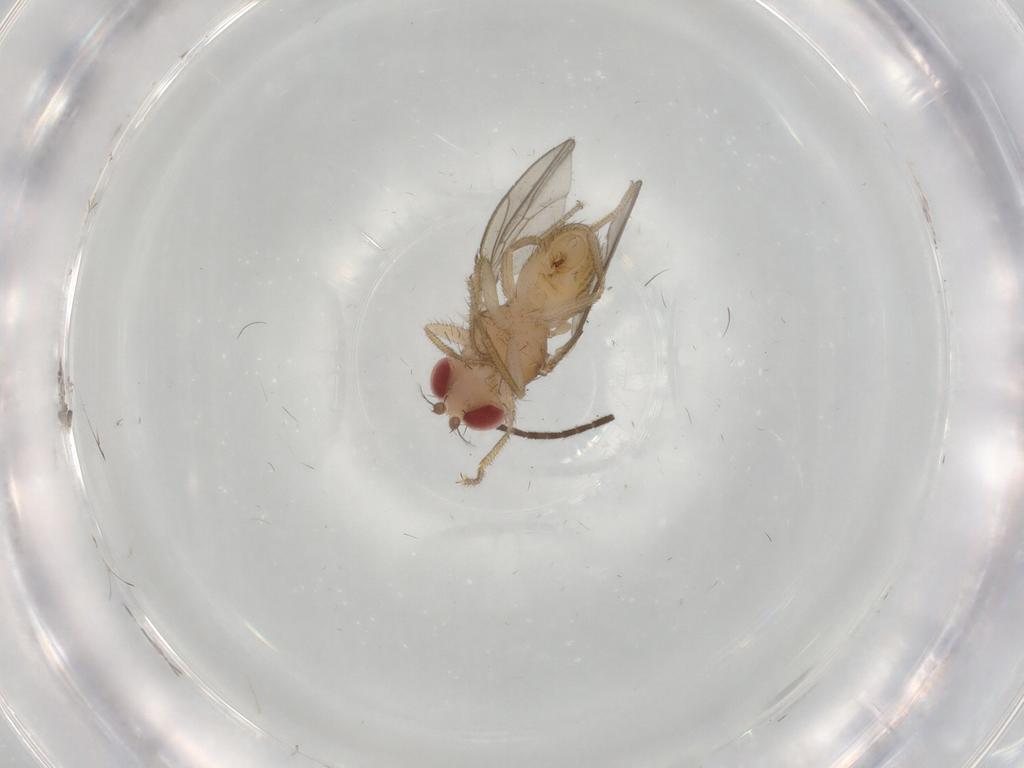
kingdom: Animalia
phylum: Arthropoda
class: Insecta
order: Diptera
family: Drosophilidae
